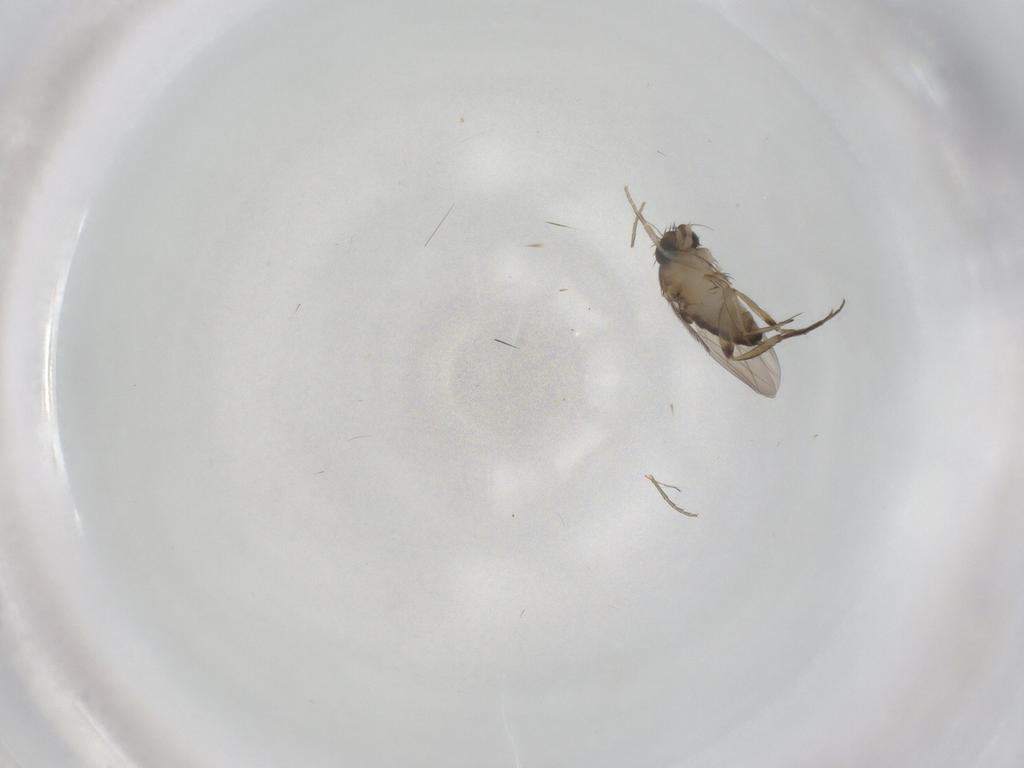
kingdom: Animalia
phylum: Arthropoda
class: Insecta
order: Diptera
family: Phoridae
